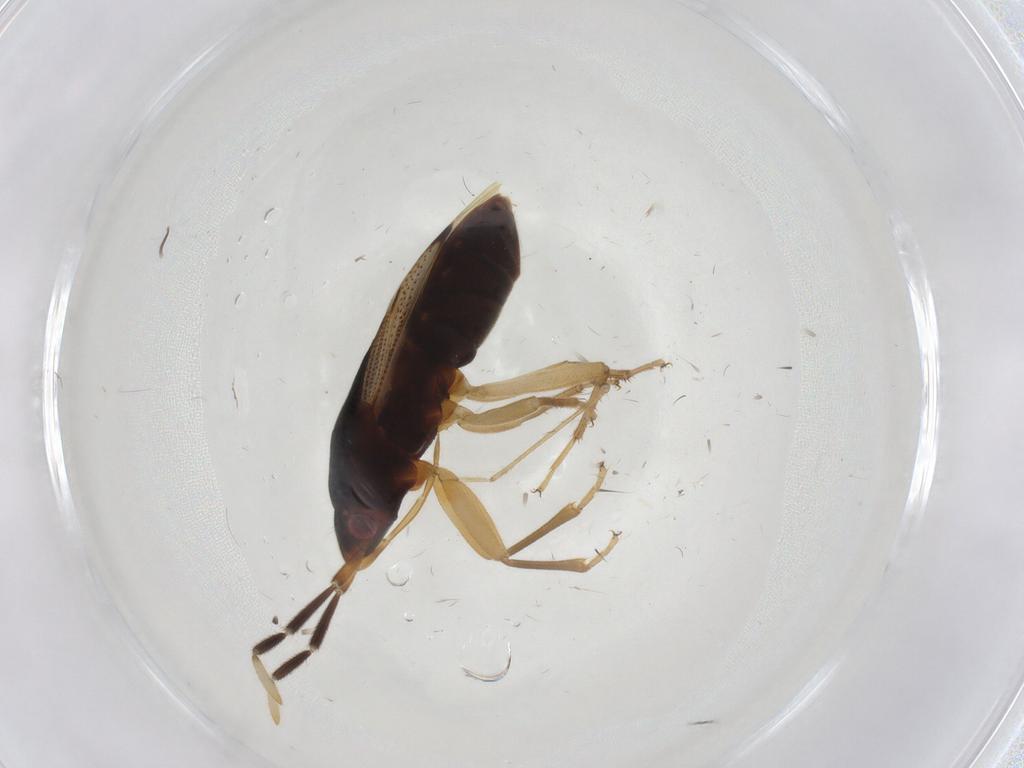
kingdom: Animalia
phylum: Arthropoda
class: Insecta
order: Hemiptera
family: Rhyparochromidae
